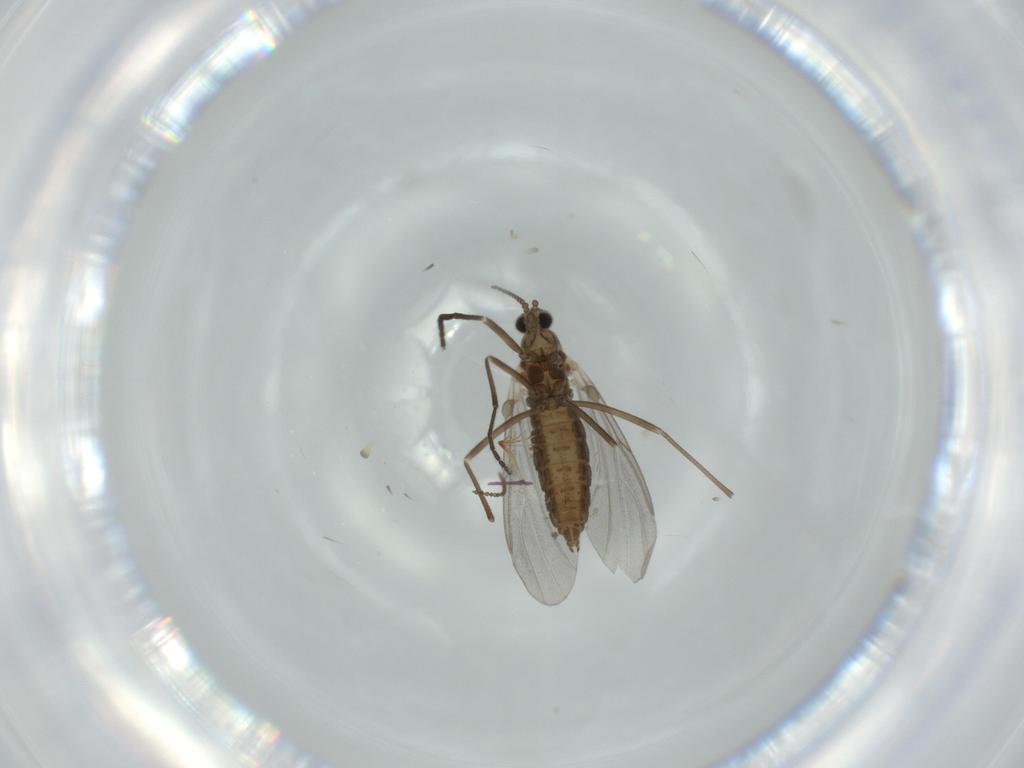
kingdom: Animalia
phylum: Arthropoda
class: Insecta
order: Diptera
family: Cecidomyiidae
